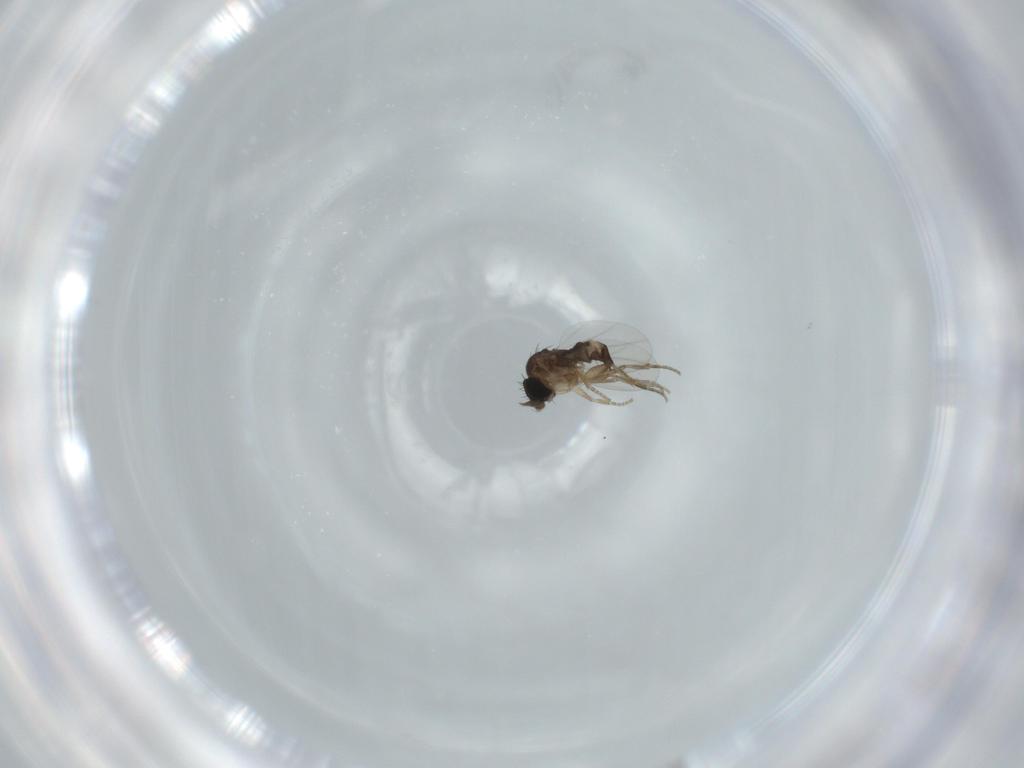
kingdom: Animalia
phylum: Arthropoda
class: Insecta
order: Diptera
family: Phoridae
